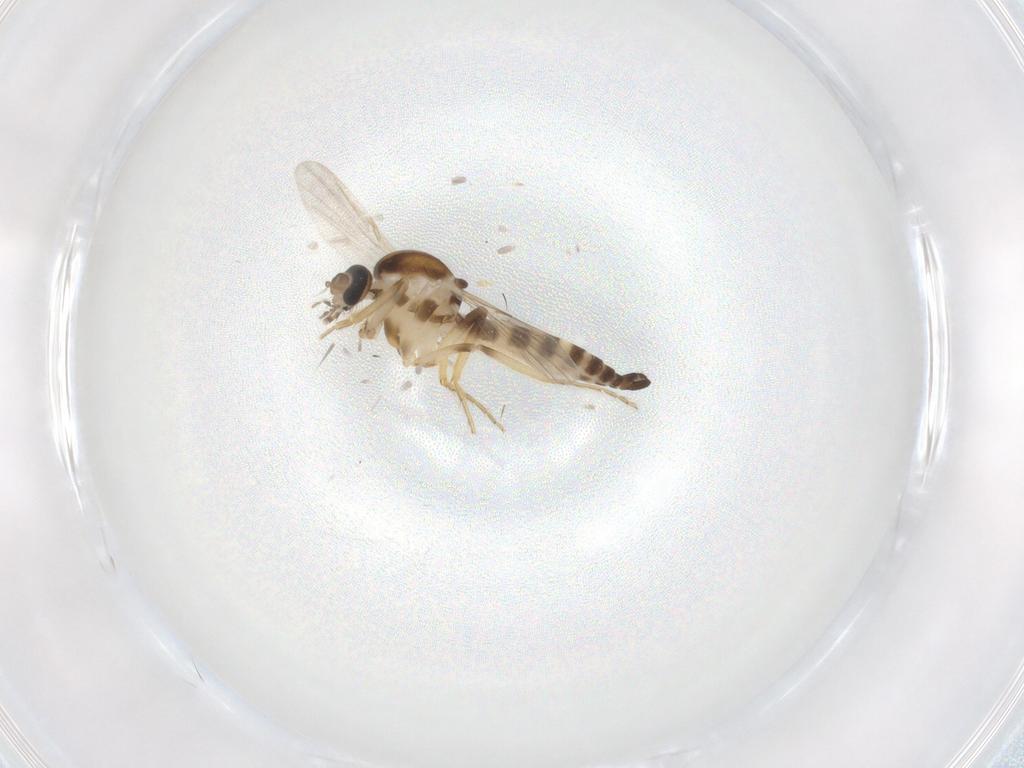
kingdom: Animalia
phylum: Arthropoda
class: Insecta
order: Diptera
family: Ceratopogonidae
